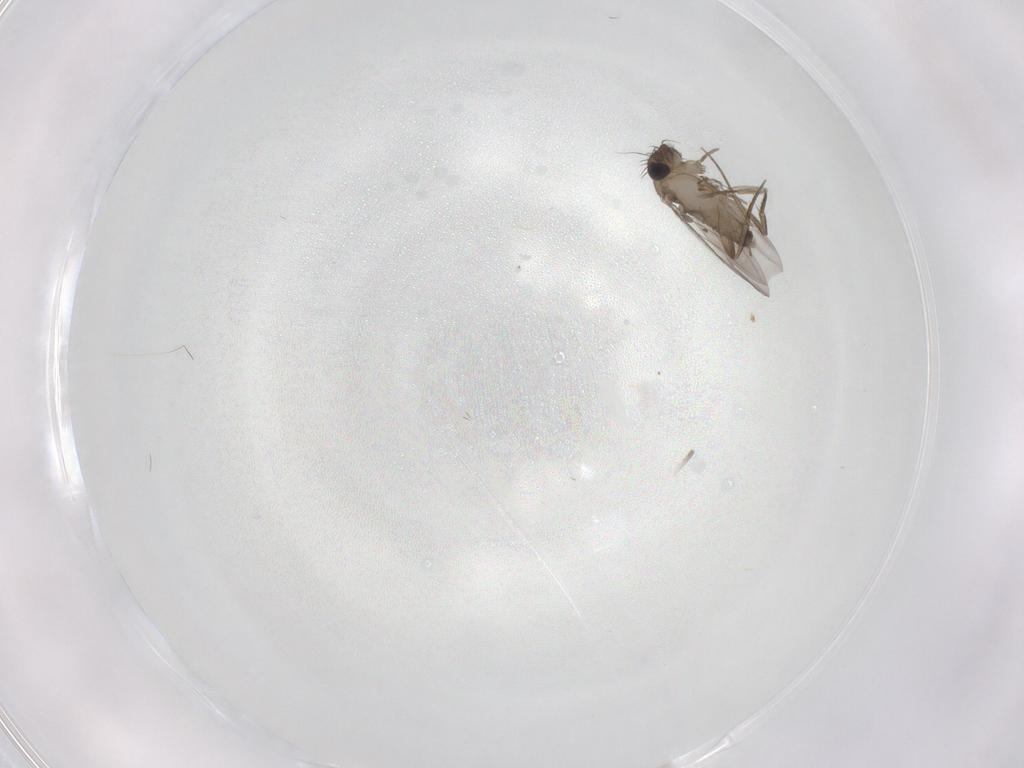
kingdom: Animalia
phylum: Arthropoda
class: Insecta
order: Diptera
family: Phoridae
